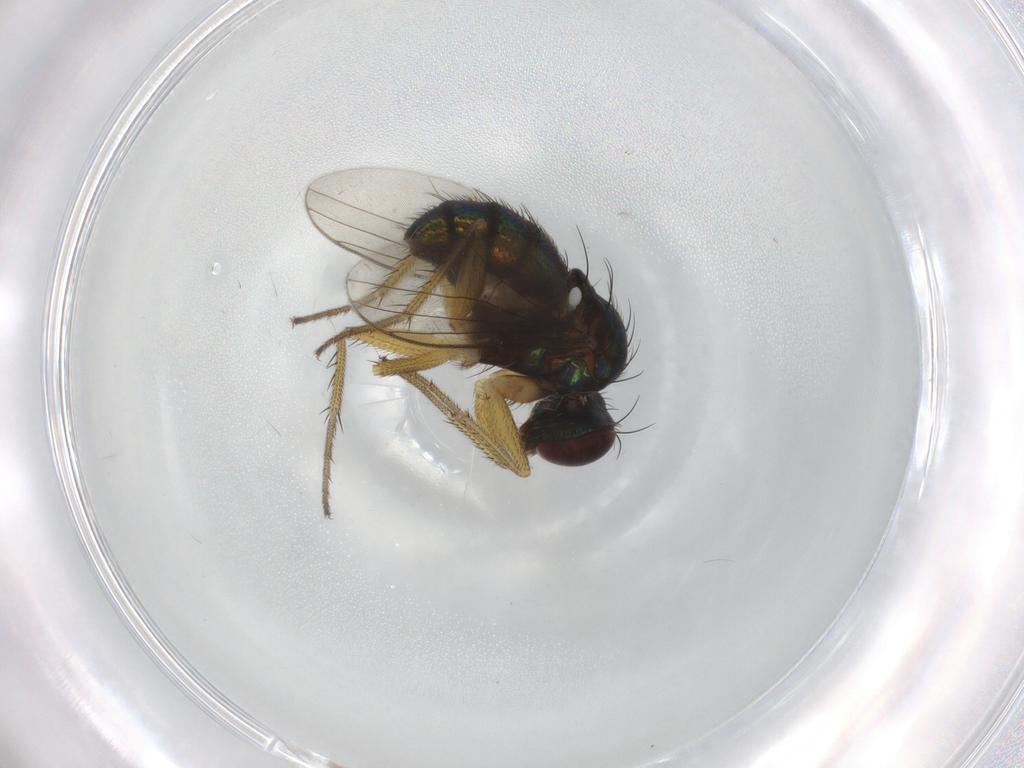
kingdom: Animalia
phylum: Arthropoda
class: Insecta
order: Diptera
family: Dolichopodidae
